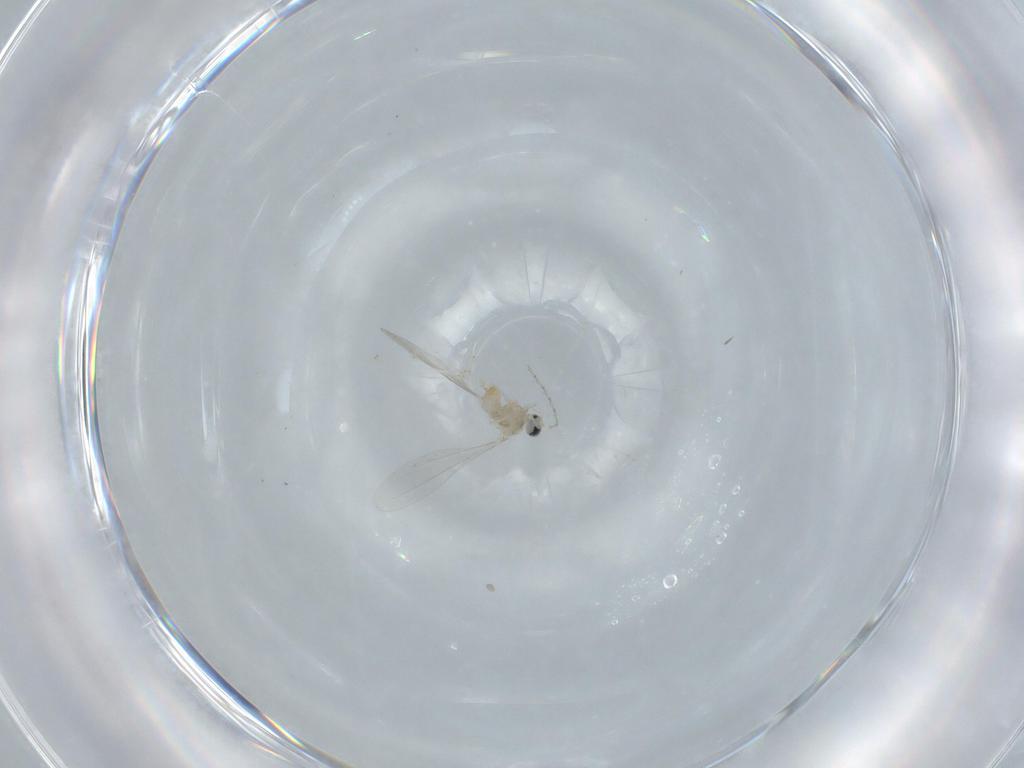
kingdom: Animalia
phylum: Arthropoda
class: Insecta
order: Diptera
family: Cecidomyiidae
